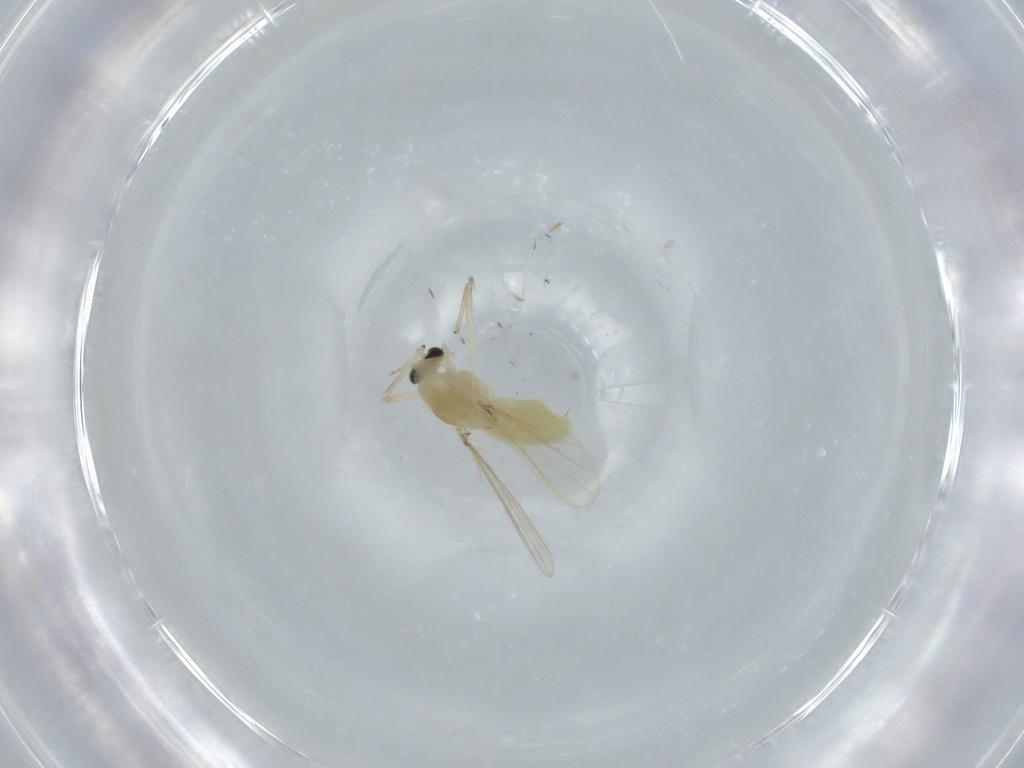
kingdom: Animalia
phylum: Arthropoda
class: Insecta
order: Diptera
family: Chironomidae
